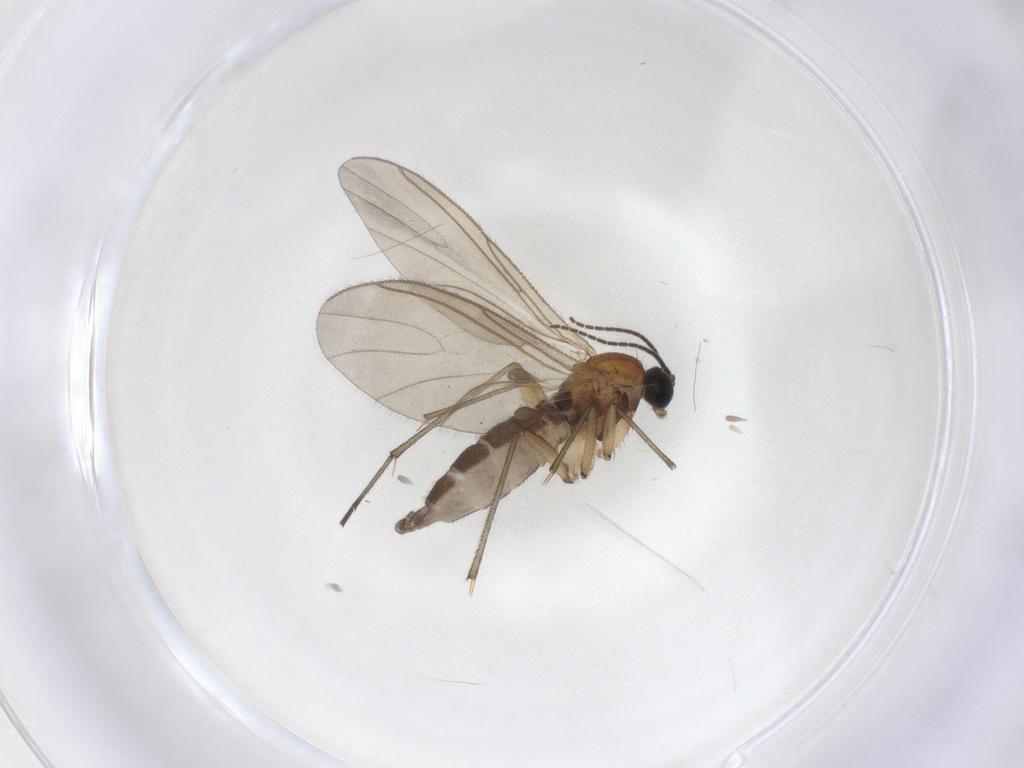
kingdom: Animalia
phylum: Arthropoda
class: Insecta
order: Diptera
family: Sciaridae
